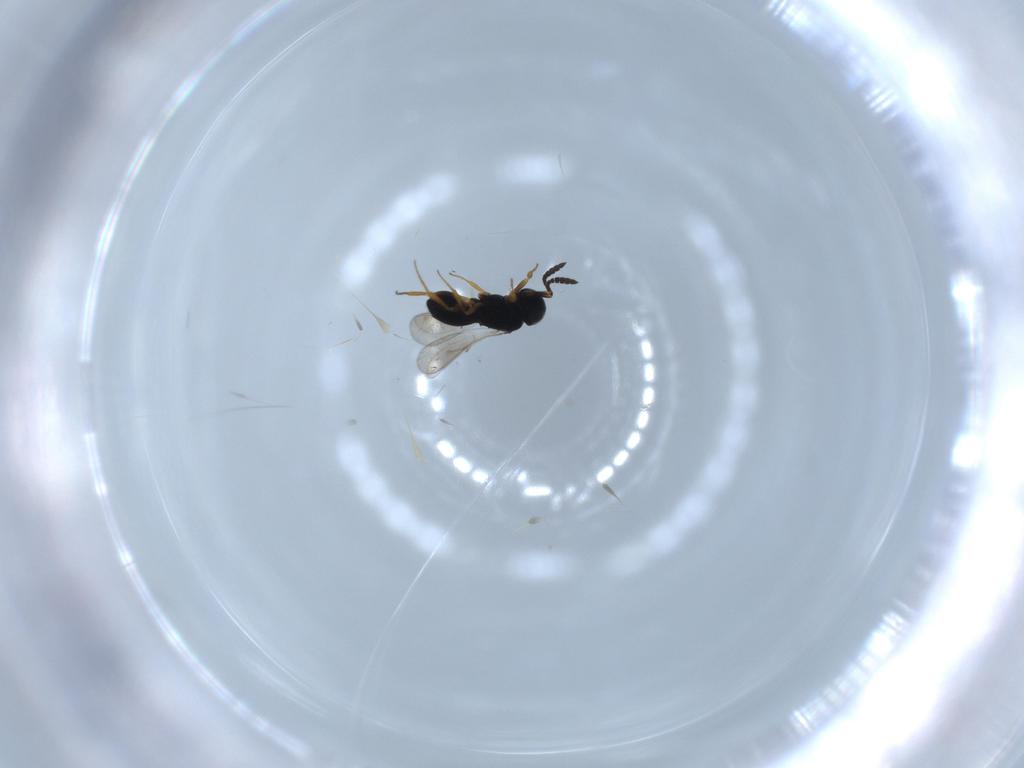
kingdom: Animalia
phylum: Arthropoda
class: Insecta
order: Hymenoptera
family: Scelionidae
